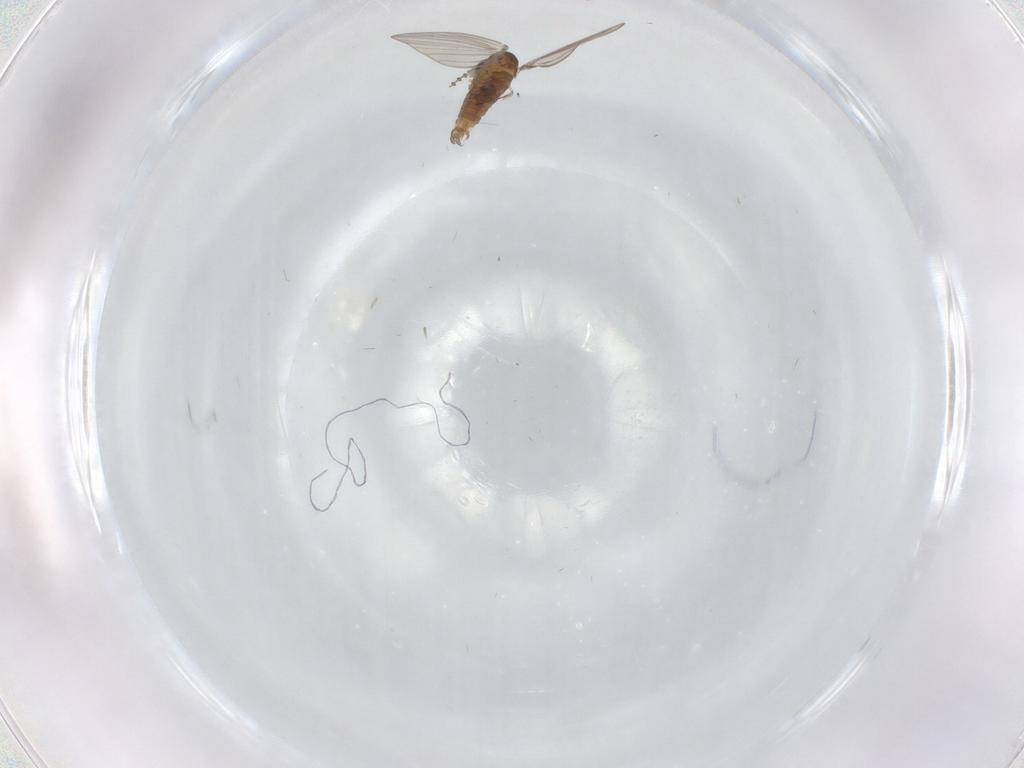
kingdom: Animalia
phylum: Arthropoda
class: Insecta
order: Diptera
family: Psychodidae
